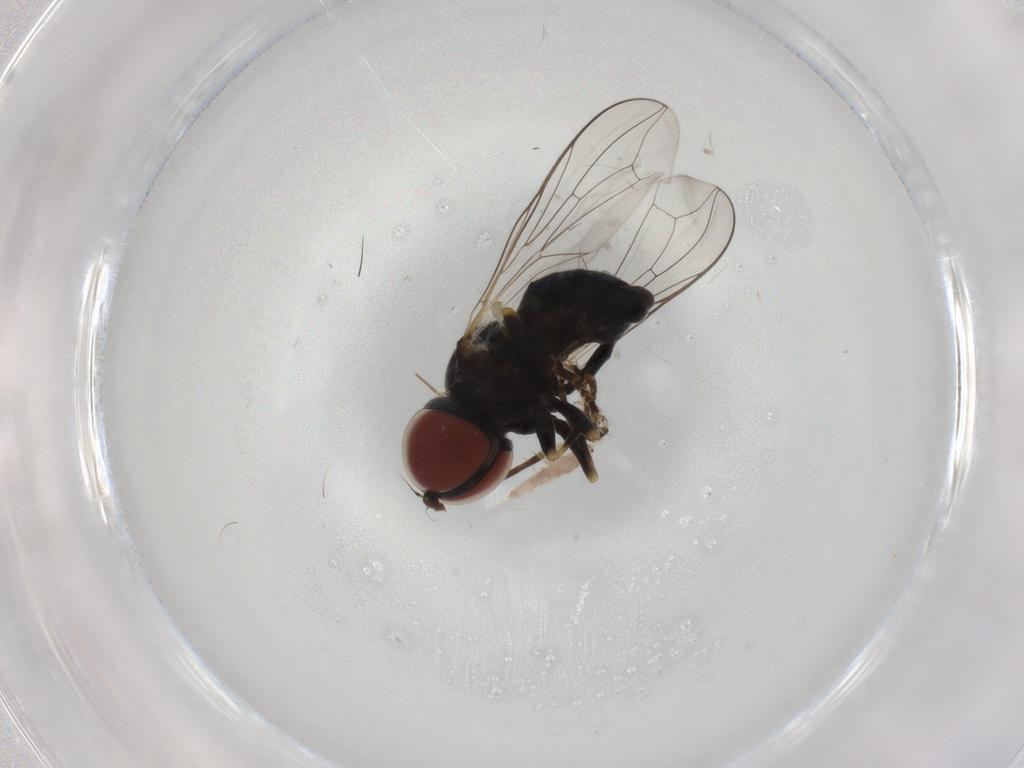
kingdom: Animalia
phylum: Arthropoda
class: Insecta
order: Diptera
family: Pipunculidae
